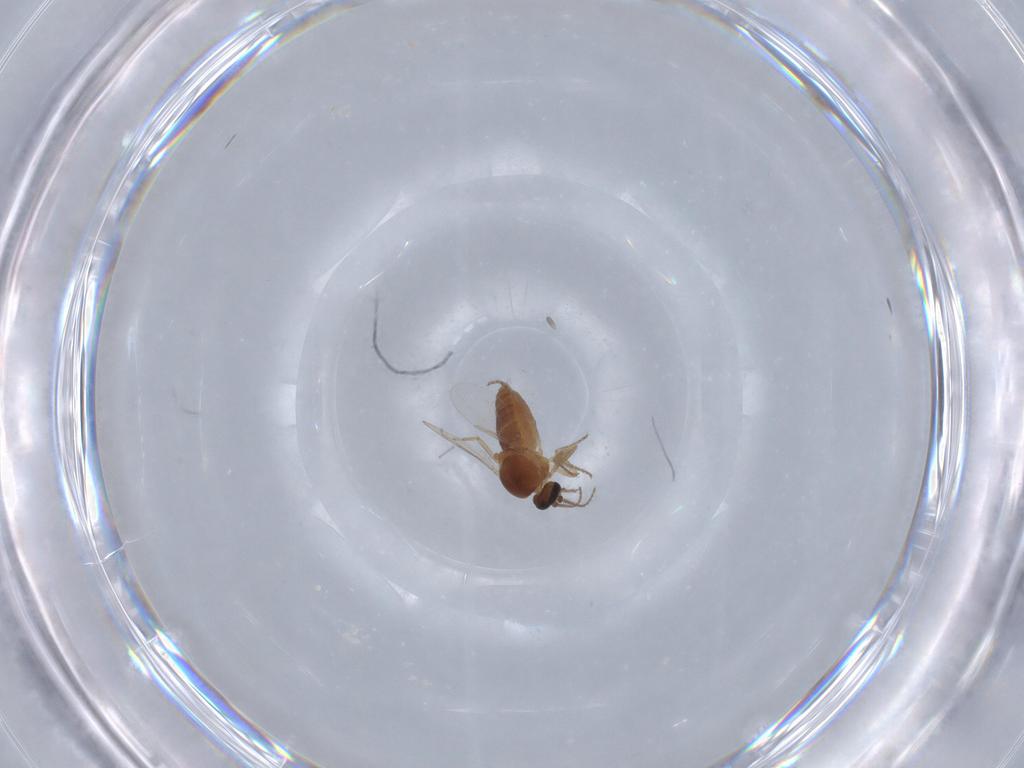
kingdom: Animalia
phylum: Arthropoda
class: Insecta
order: Diptera
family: Ceratopogonidae
